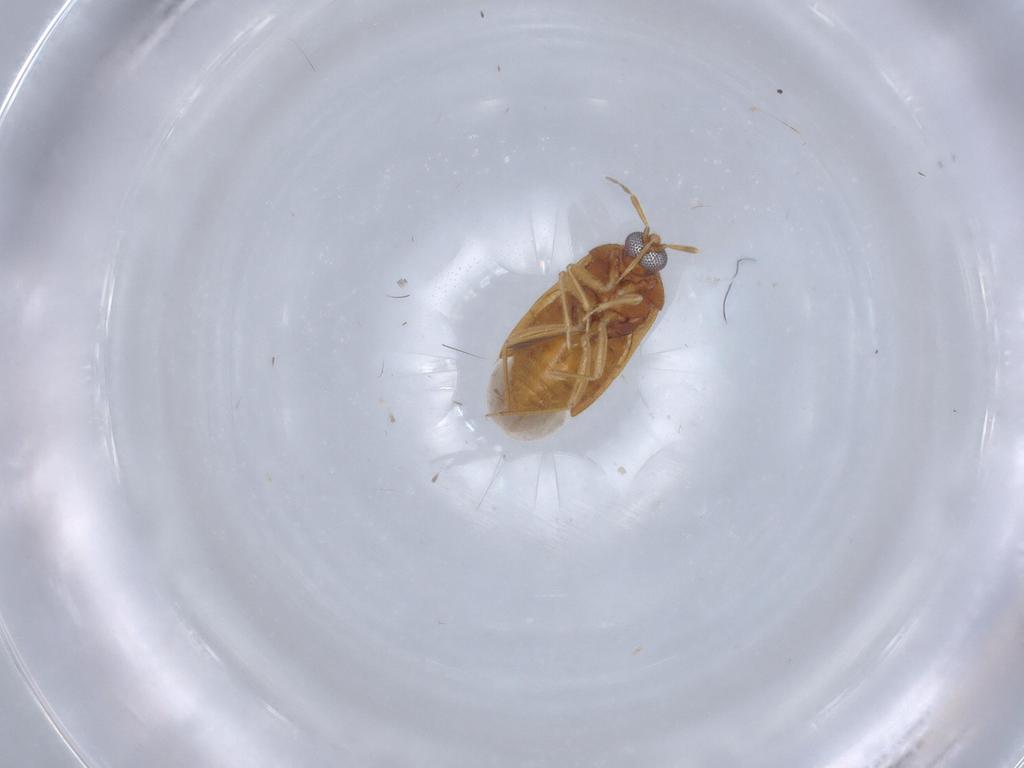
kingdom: Animalia
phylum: Arthropoda
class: Insecta
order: Hemiptera
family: Anthocoridae
